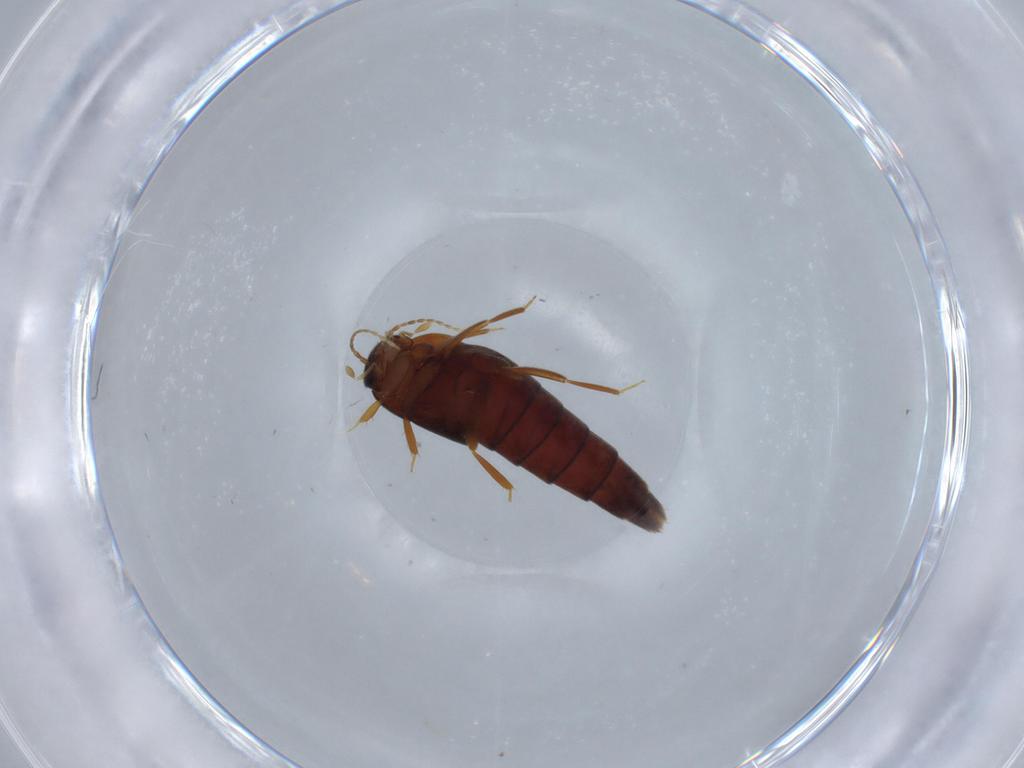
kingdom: Animalia
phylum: Arthropoda
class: Insecta
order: Coleoptera
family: Staphylinidae
